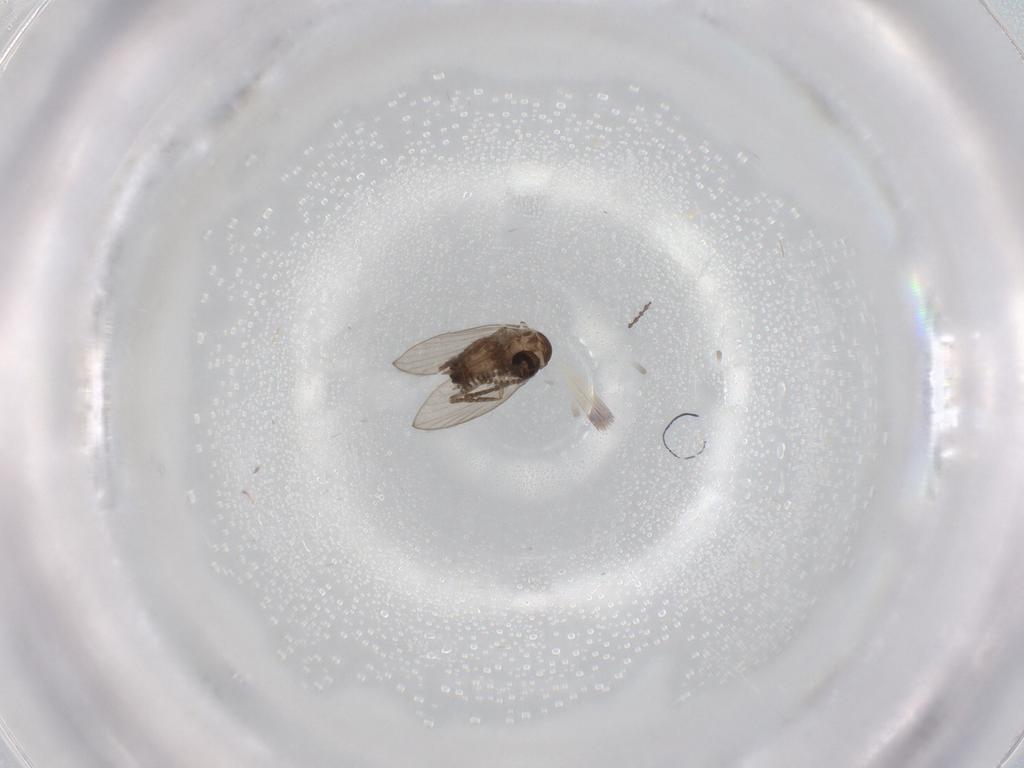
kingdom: Animalia
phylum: Arthropoda
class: Insecta
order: Diptera
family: Psychodidae
